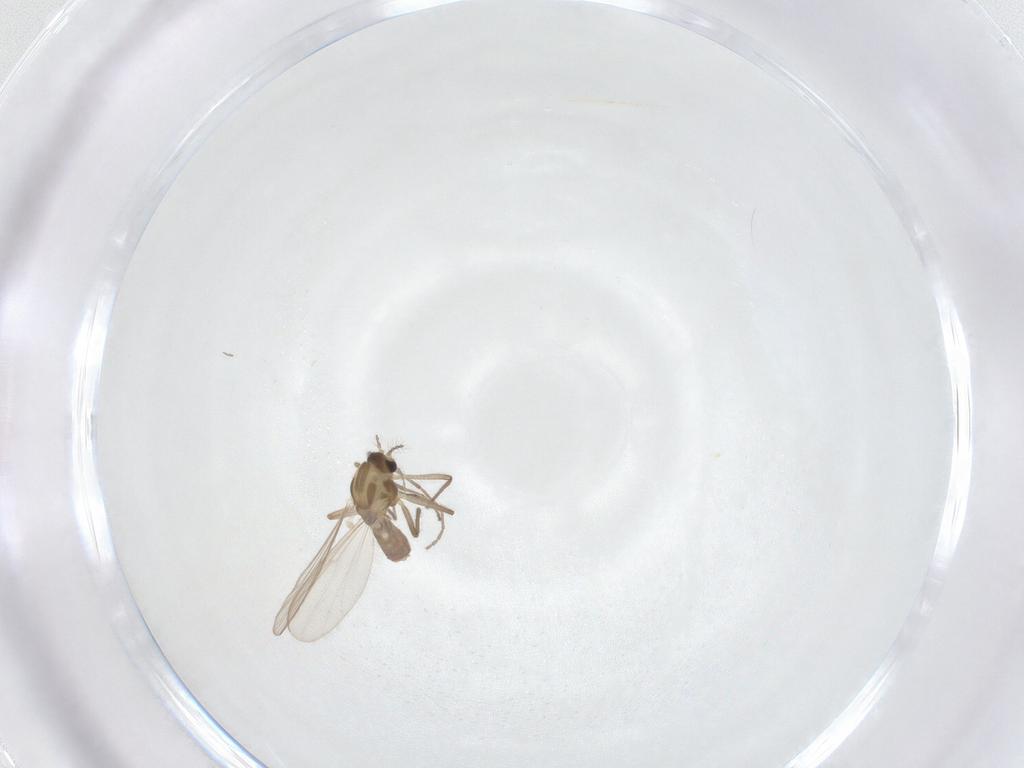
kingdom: Animalia
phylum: Arthropoda
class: Insecta
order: Diptera
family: Chironomidae
